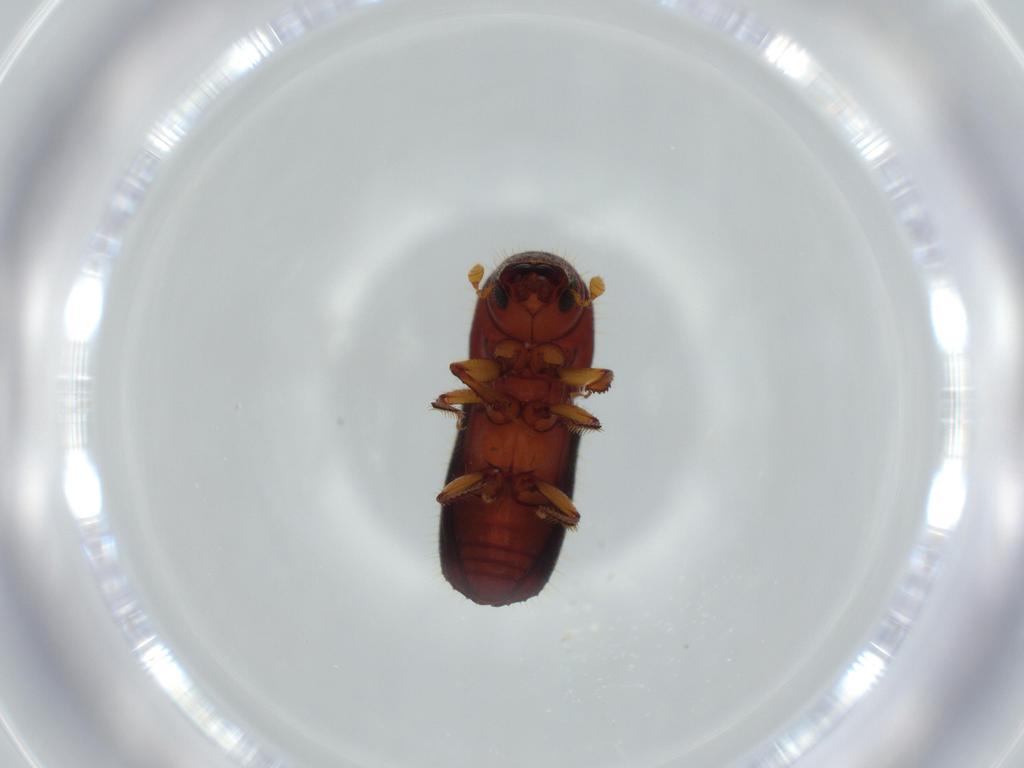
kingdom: Animalia
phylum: Arthropoda
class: Insecta
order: Coleoptera
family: Curculionidae
